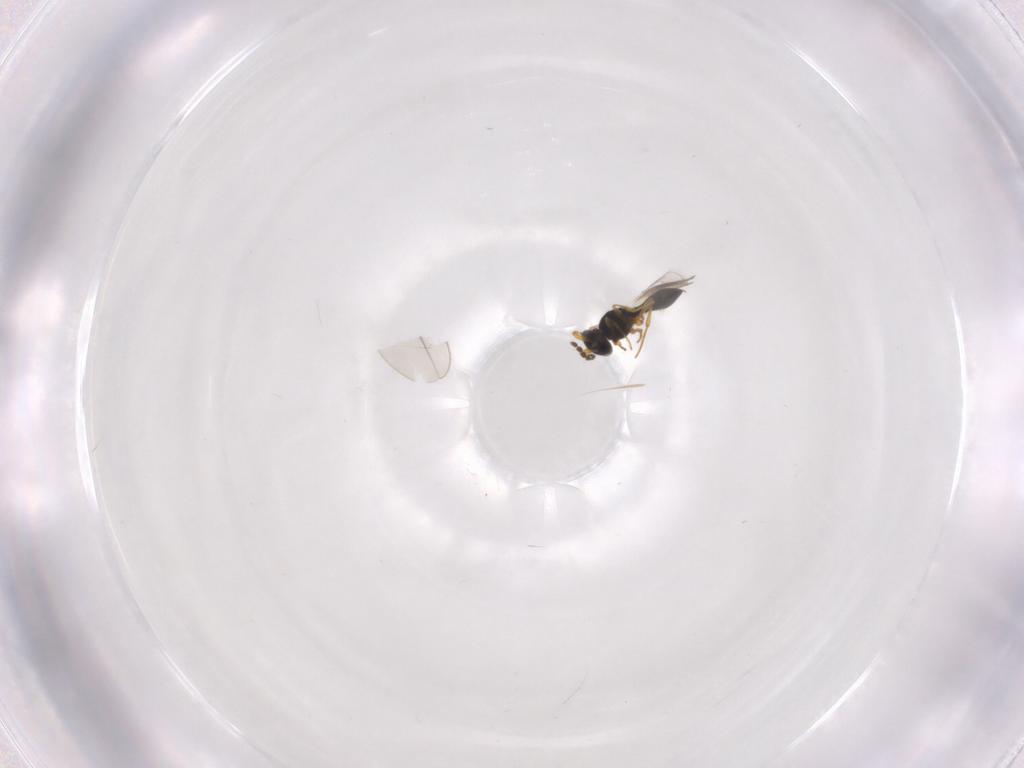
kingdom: Animalia
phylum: Arthropoda
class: Insecta
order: Hymenoptera
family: Platygastridae
